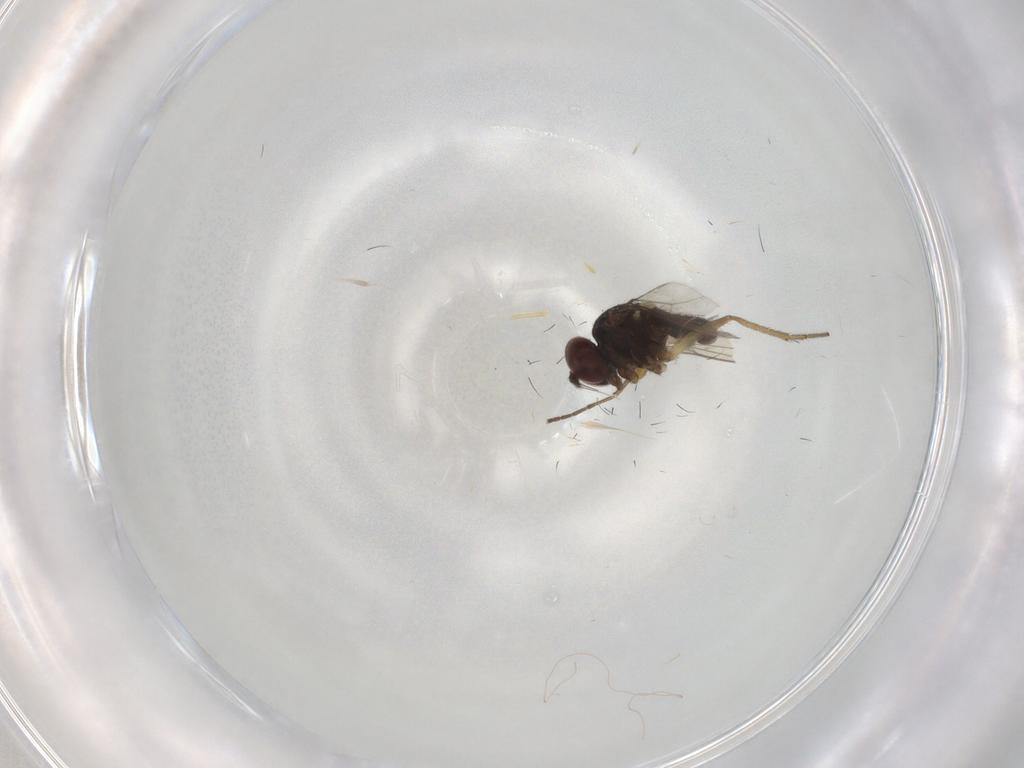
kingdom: Animalia
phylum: Arthropoda
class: Insecta
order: Diptera
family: Dolichopodidae
